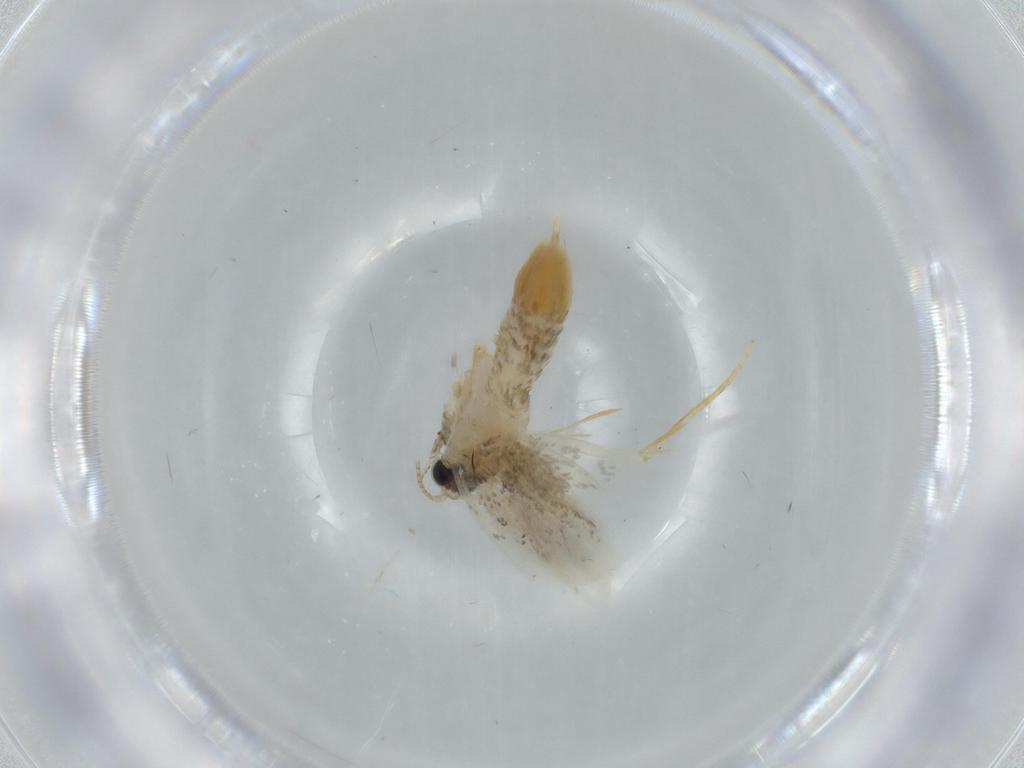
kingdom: Animalia
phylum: Arthropoda
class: Insecta
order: Lepidoptera
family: Tineidae
